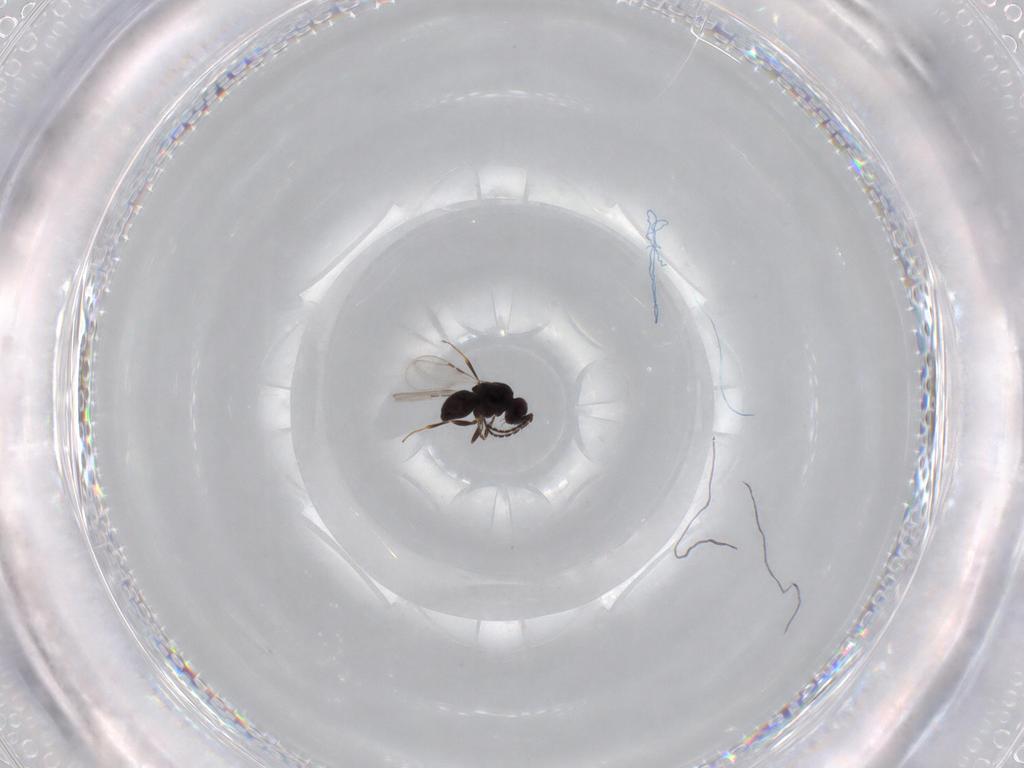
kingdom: Animalia
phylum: Arthropoda
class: Insecta
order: Hymenoptera
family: Pteromalidae
